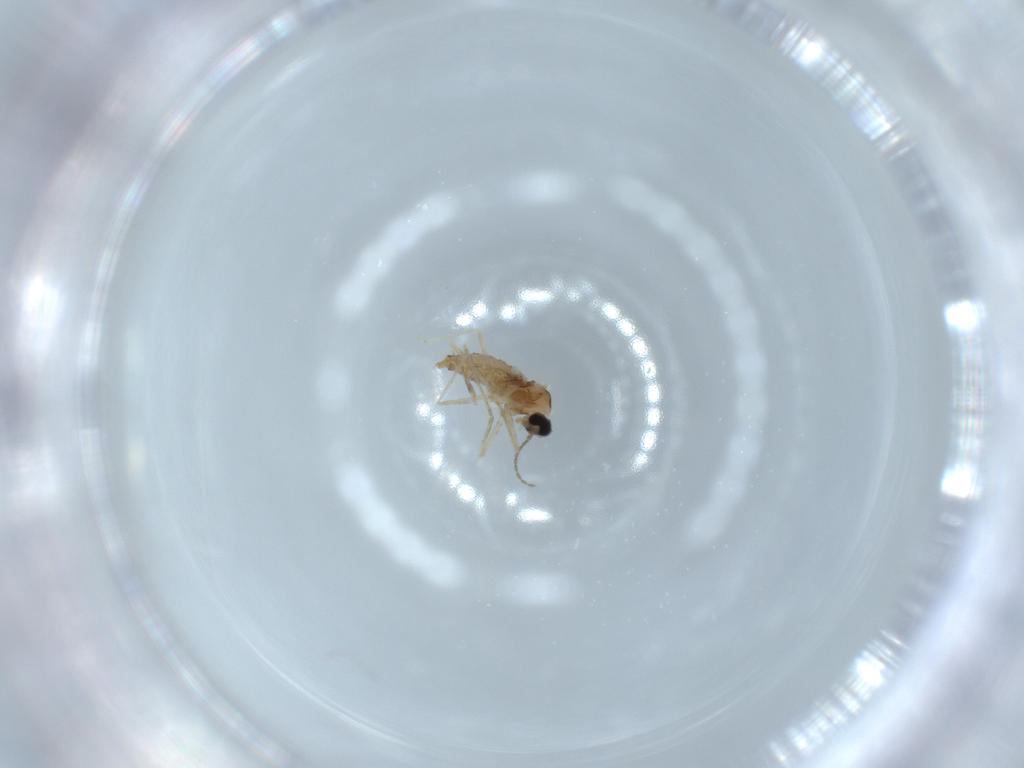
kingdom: Animalia
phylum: Arthropoda
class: Insecta
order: Diptera
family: Cecidomyiidae
